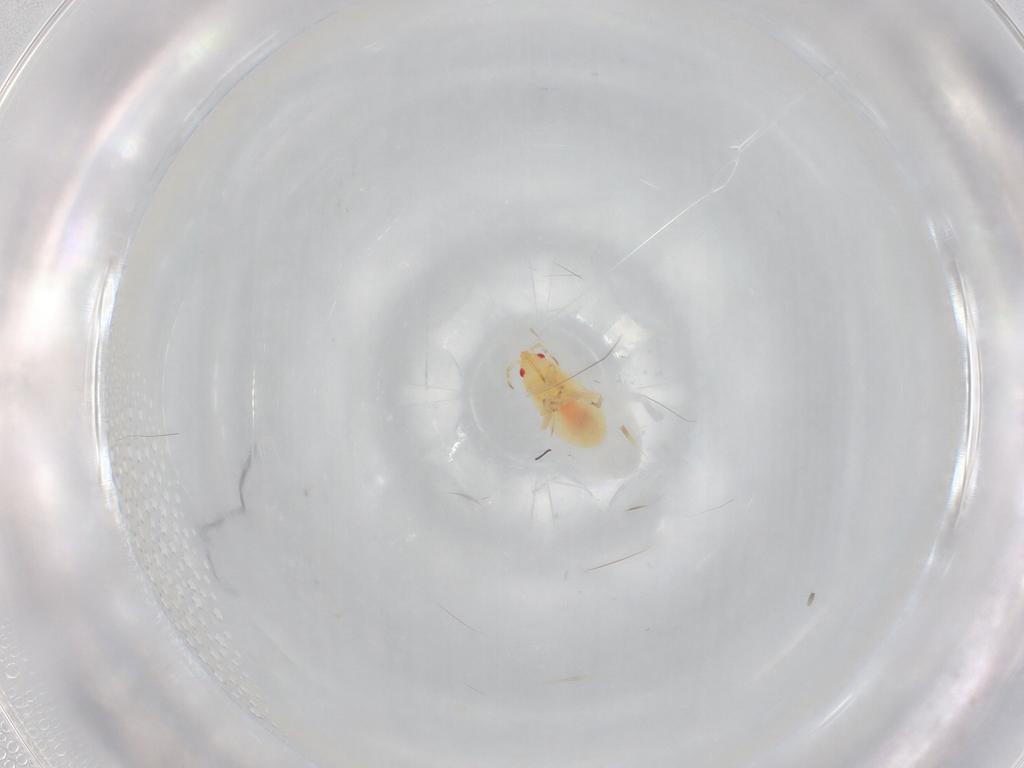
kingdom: Animalia
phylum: Arthropoda
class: Insecta
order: Hemiptera
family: Anthocoridae
